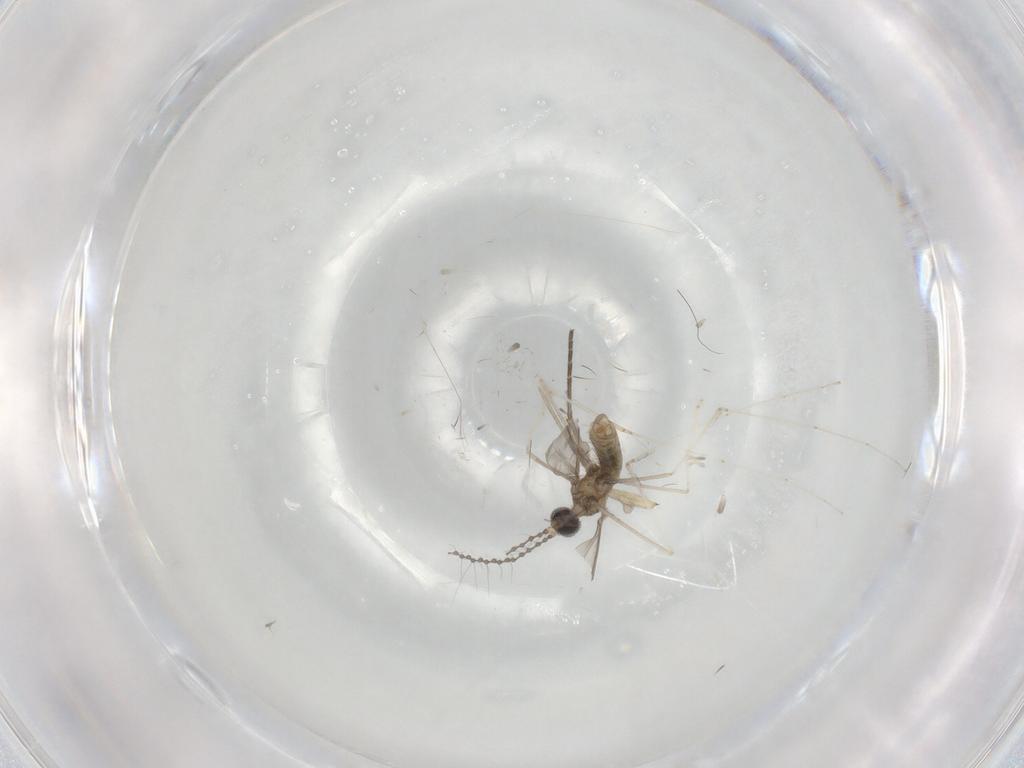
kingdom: Animalia
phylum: Arthropoda
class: Insecta
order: Diptera
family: Cecidomyiidae
